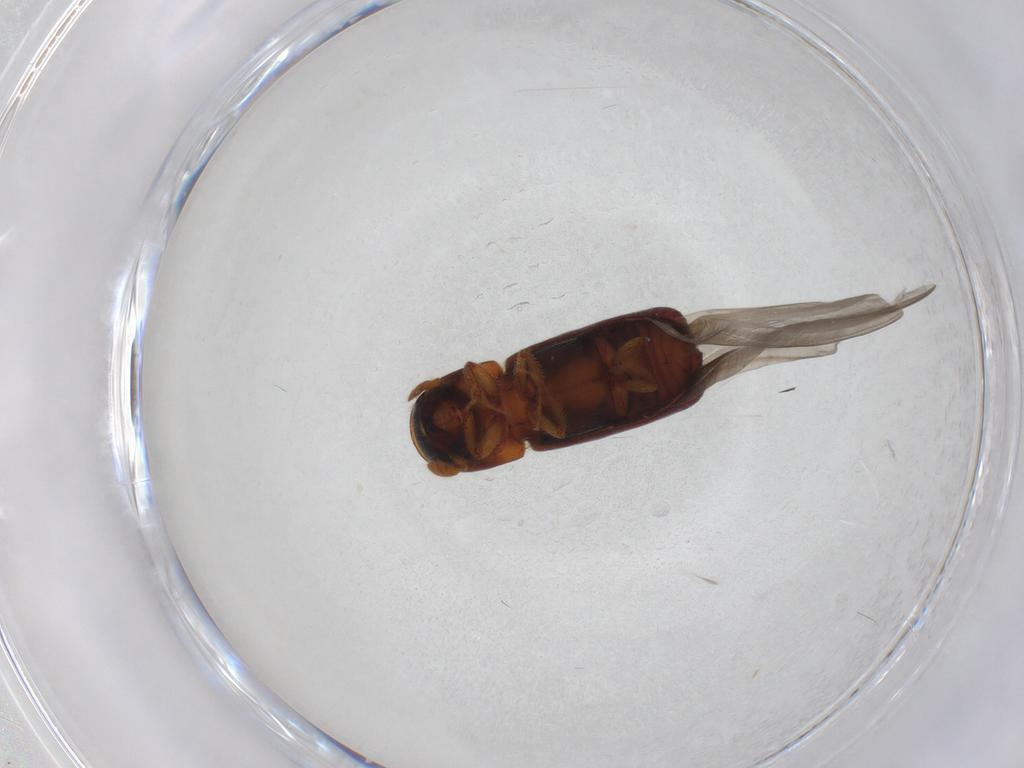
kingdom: Animalia
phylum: Arthropoda
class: Insecta
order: Coleoptera
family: Curculionidae
